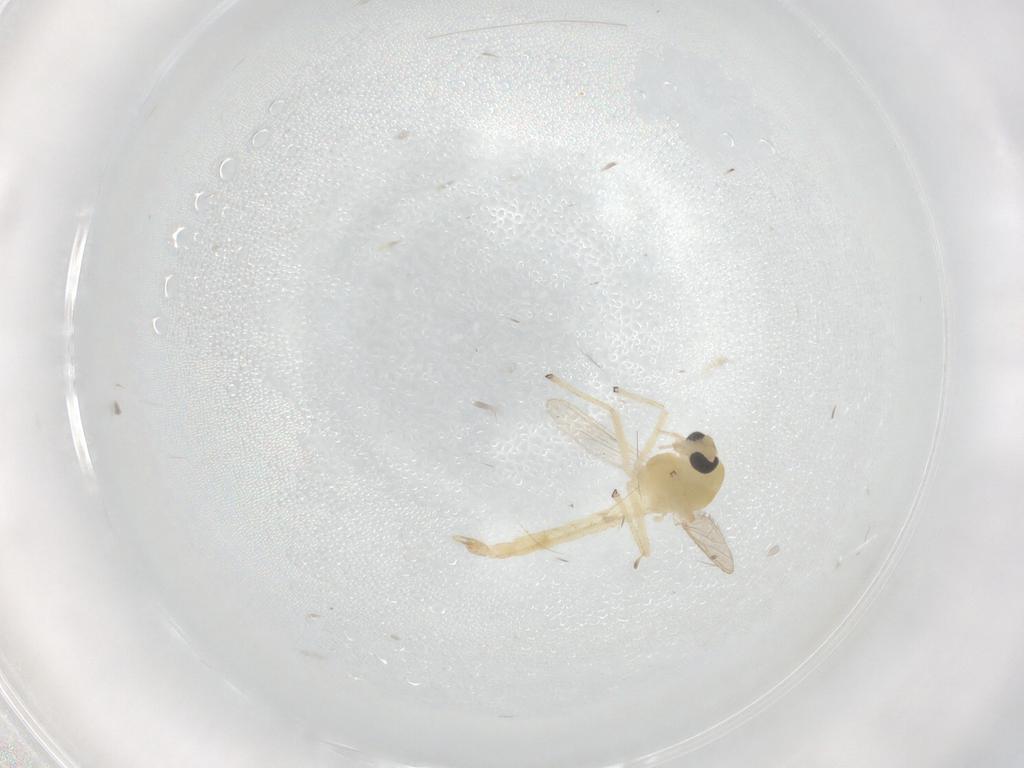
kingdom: Animalia
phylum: Arthropoda
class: Insecta
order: Diptera
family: Chironomidae
